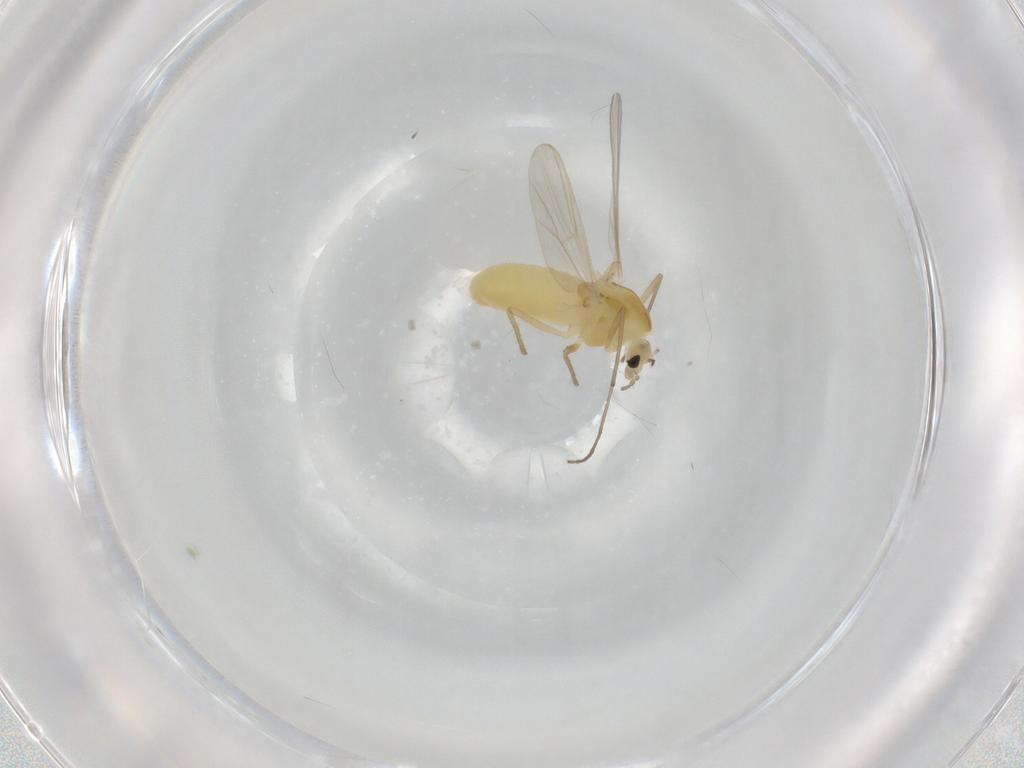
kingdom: Animalia
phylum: Arthropoda
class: Insecta
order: Diptera
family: Chironomidae
